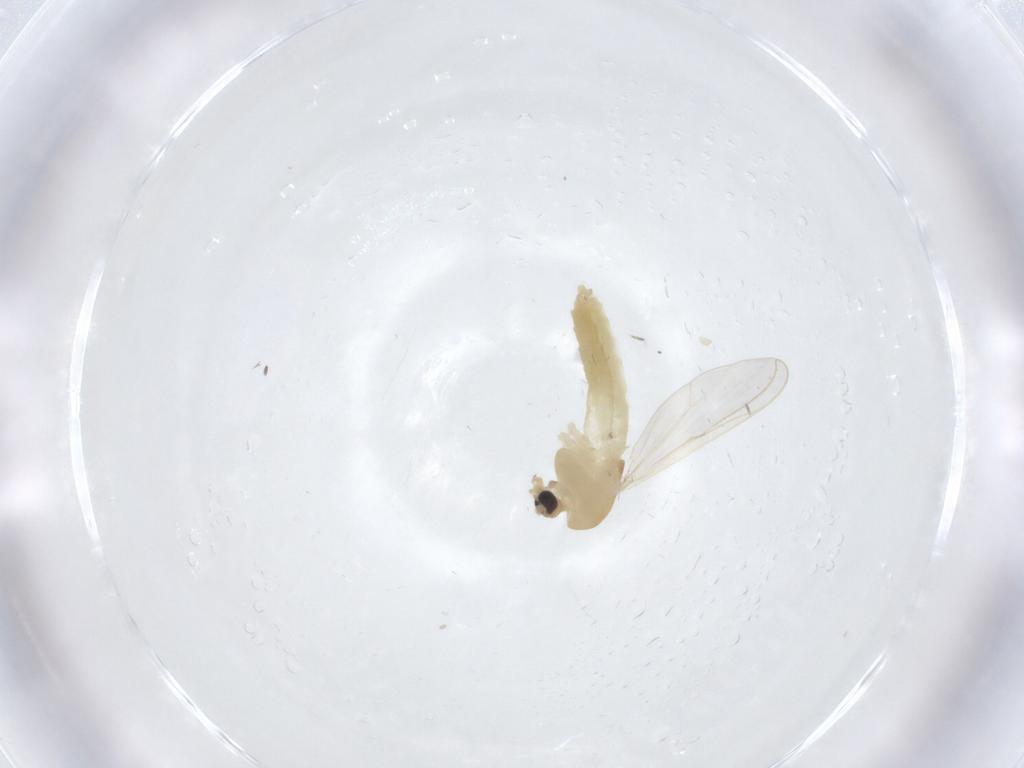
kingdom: Animalia
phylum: Arthropoda
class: Insecta
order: Diptera
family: Chironomidae
